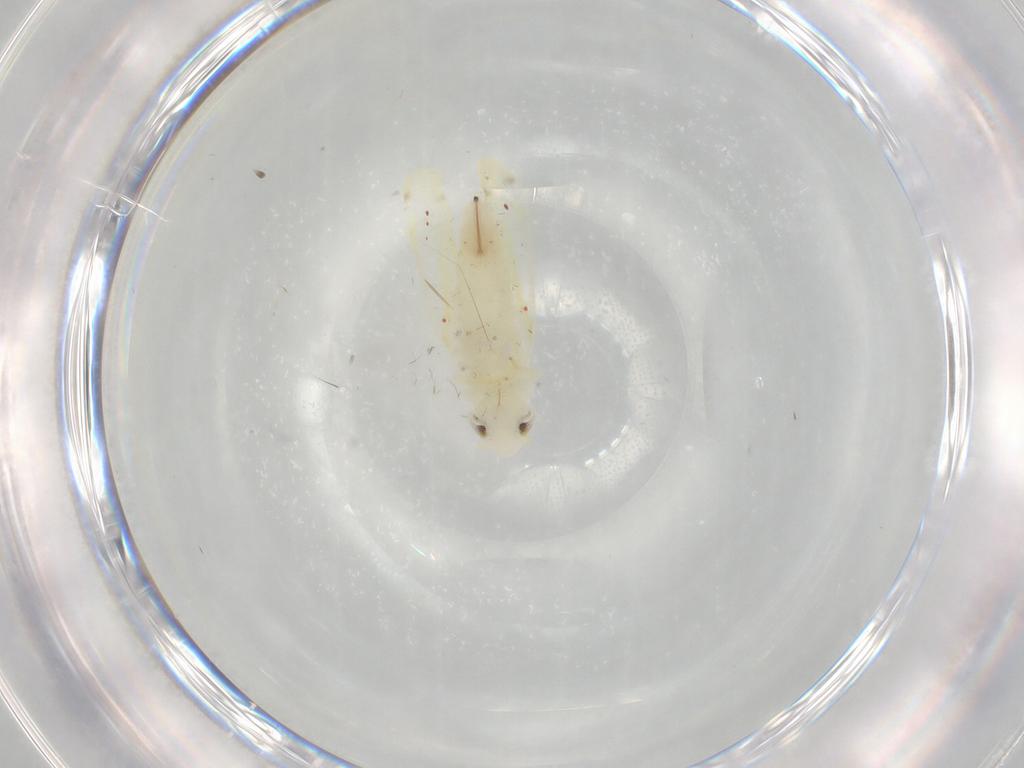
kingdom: Animalia
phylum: Arthropoda
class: Insecta
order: Hemiptera
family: Cicadellidae
